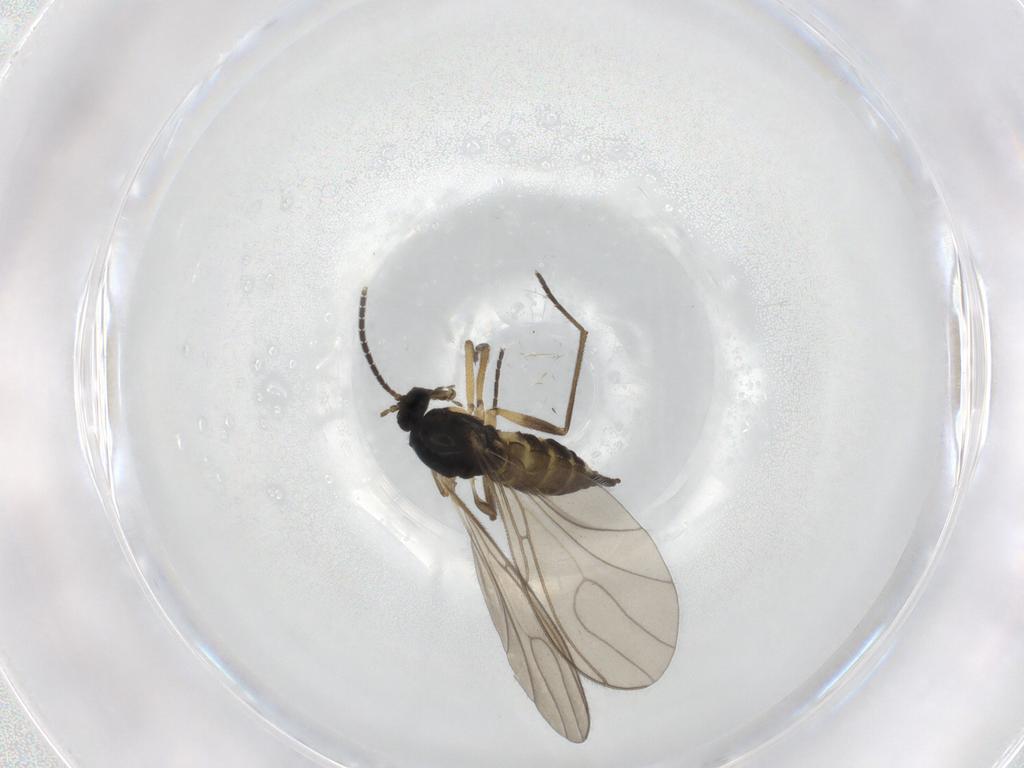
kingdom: Animalia
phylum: Arthropoda
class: Insecta
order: Diptera
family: Sciaridae
